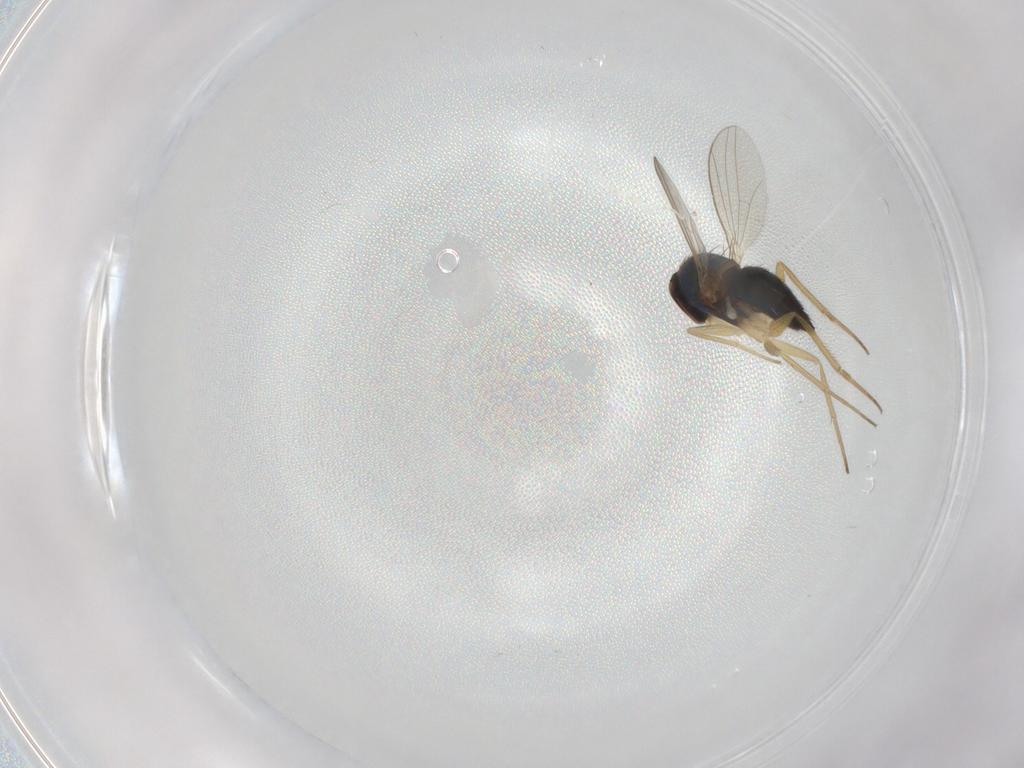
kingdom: Animalia
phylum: Arthropoda
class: Insecta
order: Diptera
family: Dolichopodidae
